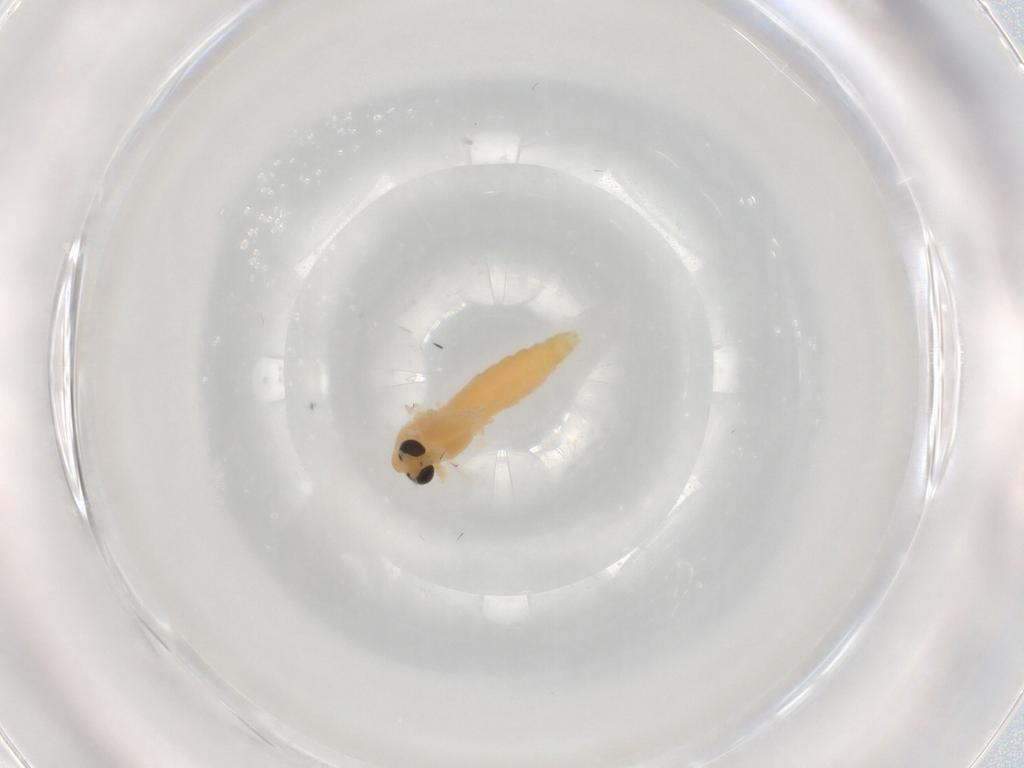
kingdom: Animalia
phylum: Arthropoda
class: Insecta
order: Diptera
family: Chironomidae
